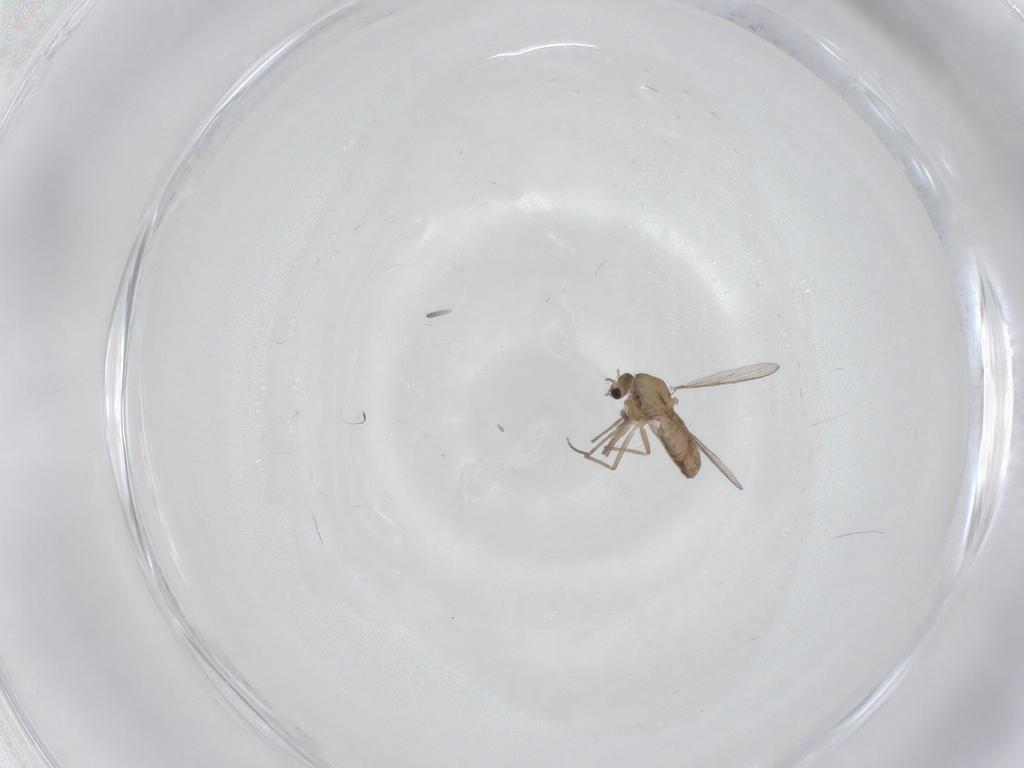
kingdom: Animalia
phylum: Arthropoda
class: Insecta
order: Diptera
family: Chironomidae
